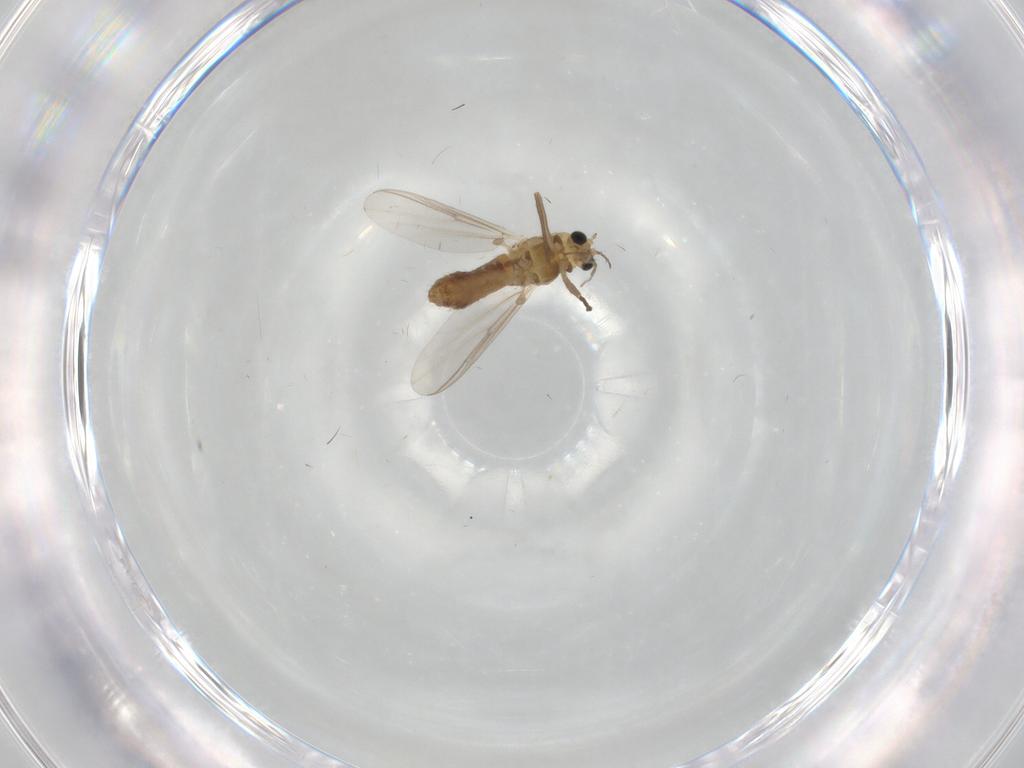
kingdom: Animalia
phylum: Arthropoda
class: Insecta
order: Diptera
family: Chironomidae
